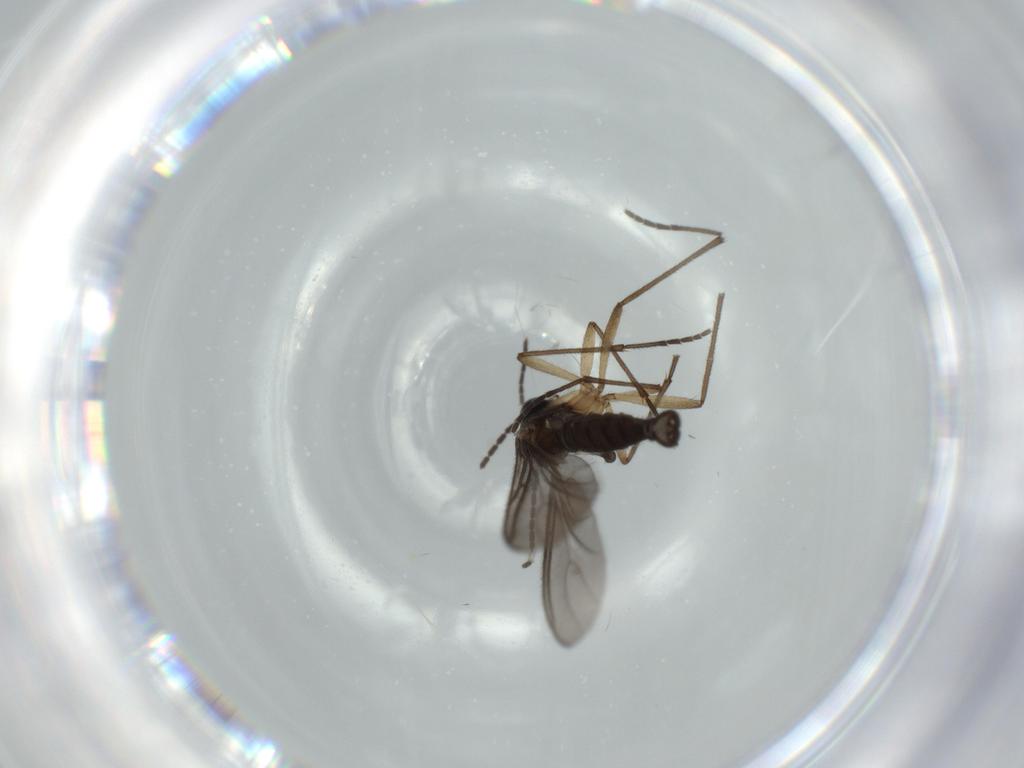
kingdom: Animalia
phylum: Arthropoda
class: Insecta
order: Diptera
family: Sciaridae
